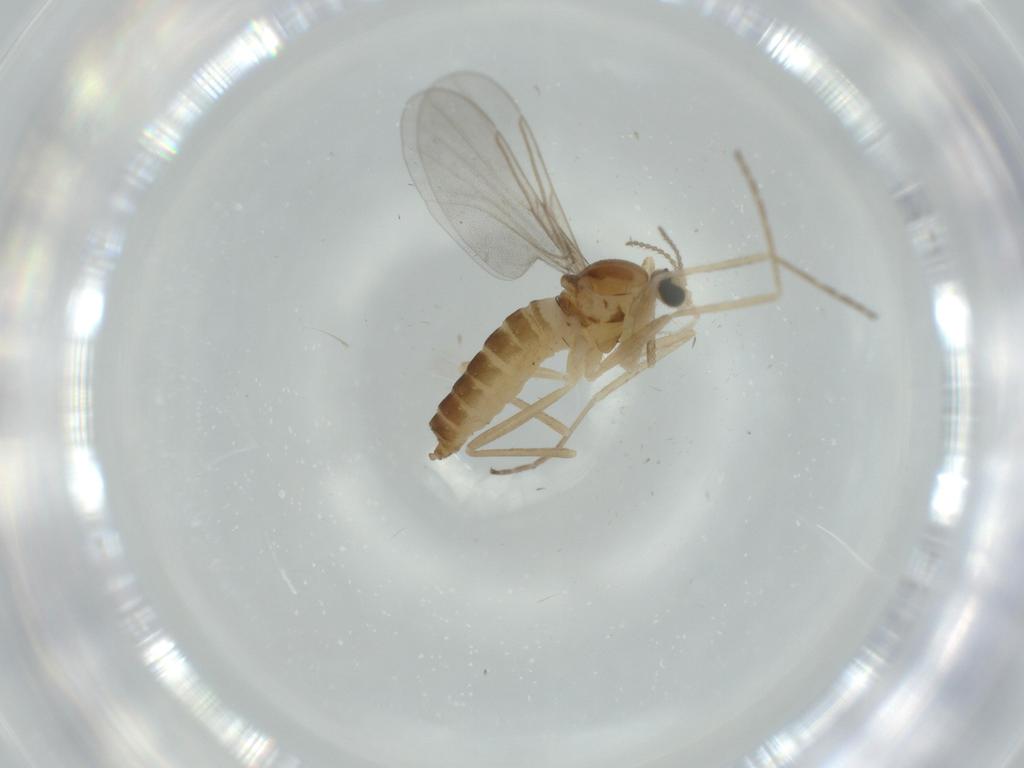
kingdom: Animalia
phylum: Arthropoda
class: Insecta
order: Diptera
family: Cecidomyiidae
